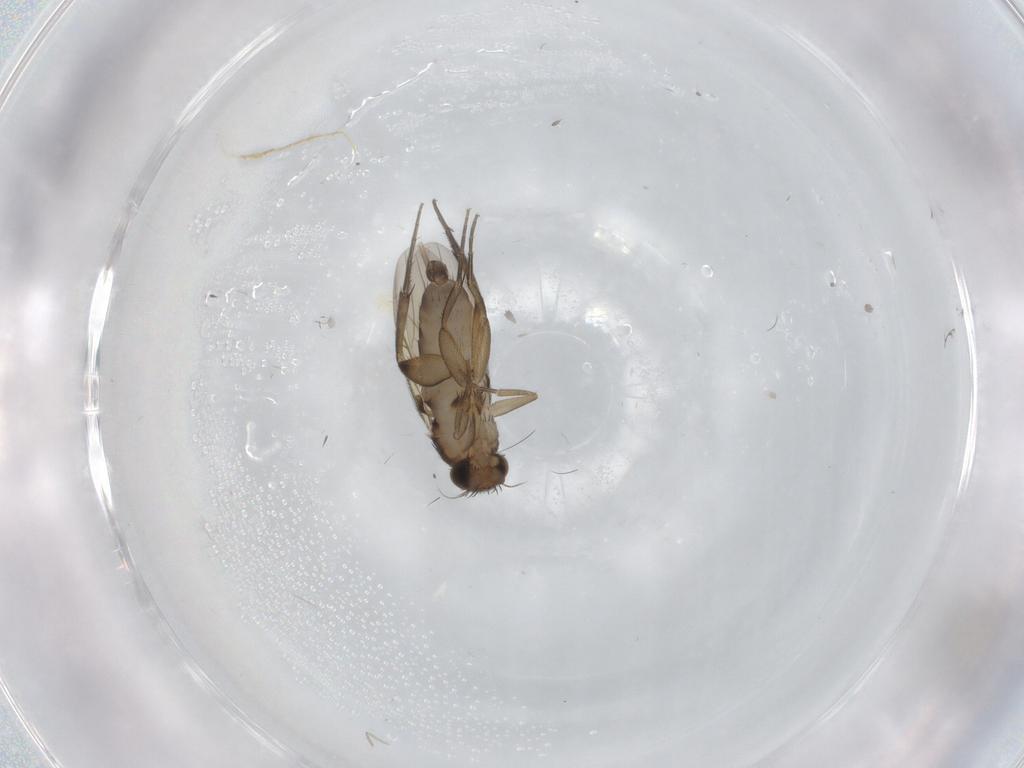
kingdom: Animalia
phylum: Arthropoda
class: Insecta
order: Diptera
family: Phoridae
